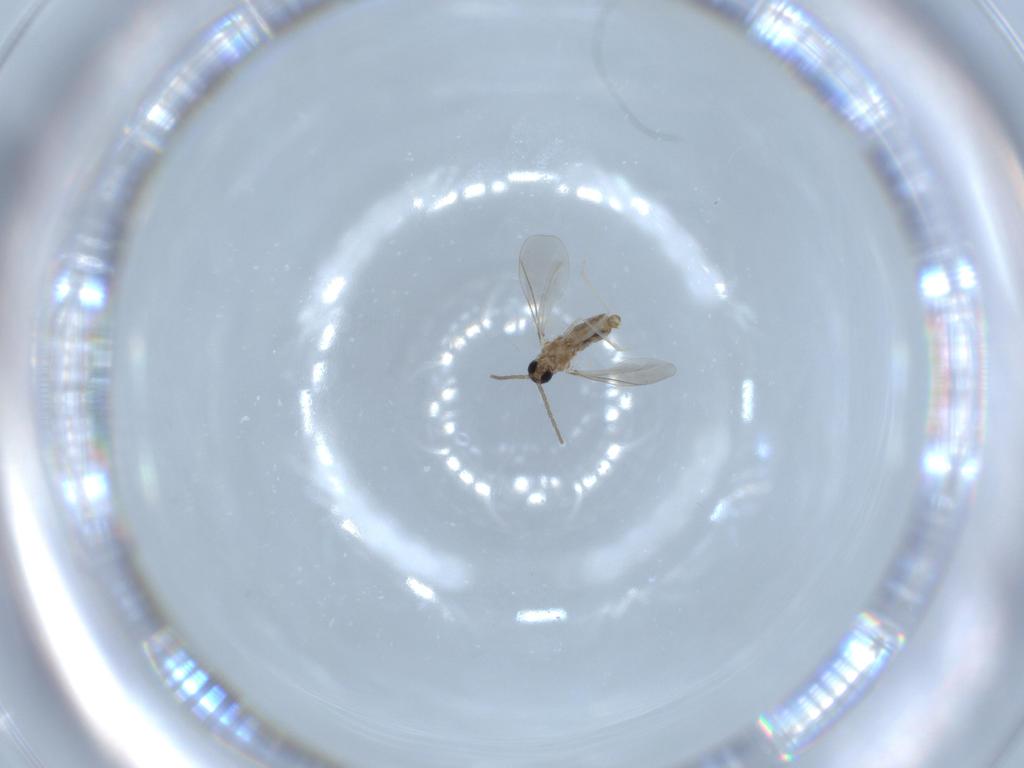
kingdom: Animalia
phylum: Arthropoda
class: Insecta
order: Diptera
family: Cecidomyiidae
